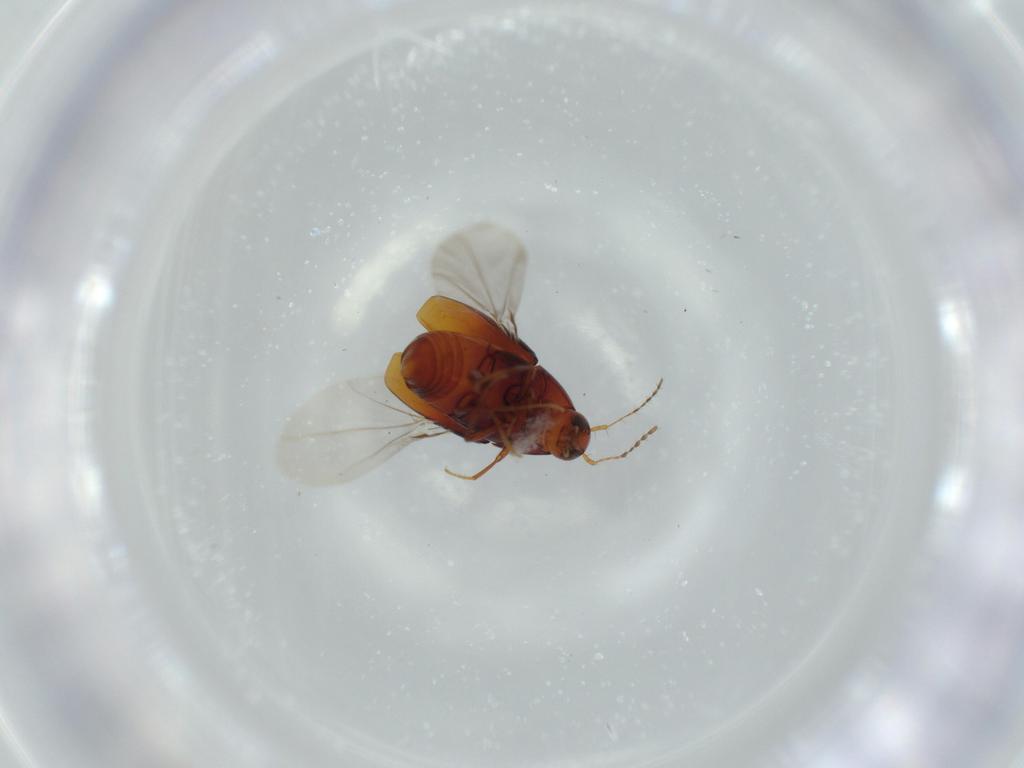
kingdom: Animalia
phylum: Arthropoda
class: Insecta
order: Coleoptera
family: Staphylinidae
